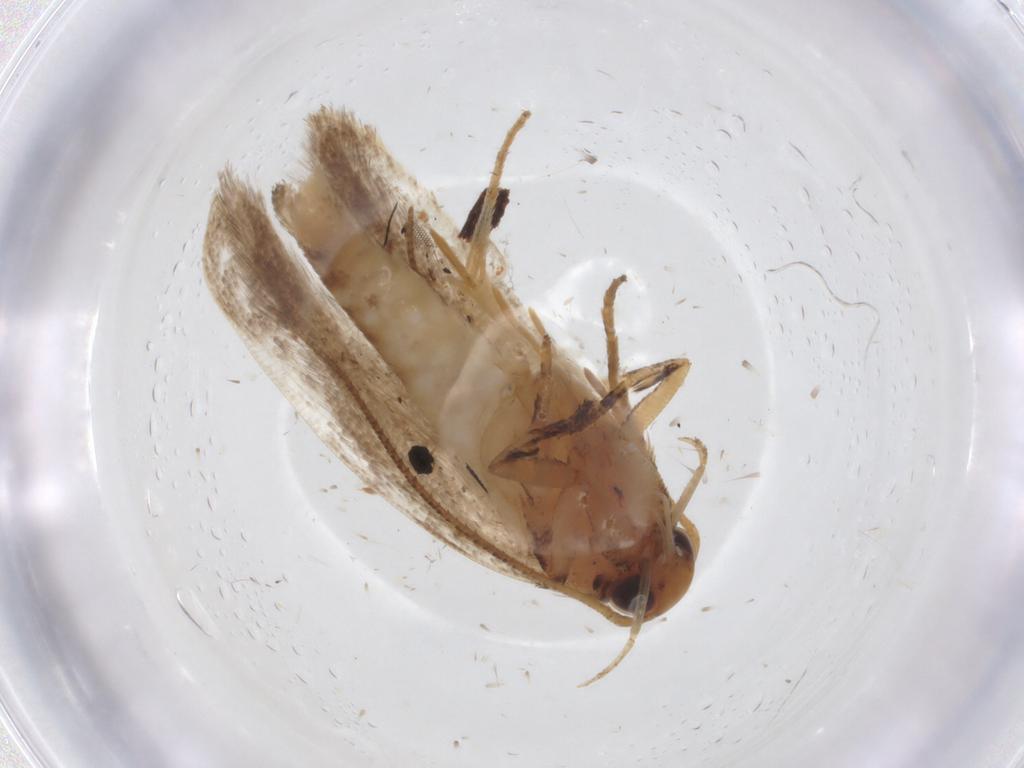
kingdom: Animalia
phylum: Arthropoda
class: Insecta
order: Lepidoptera
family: Gelechiidae
